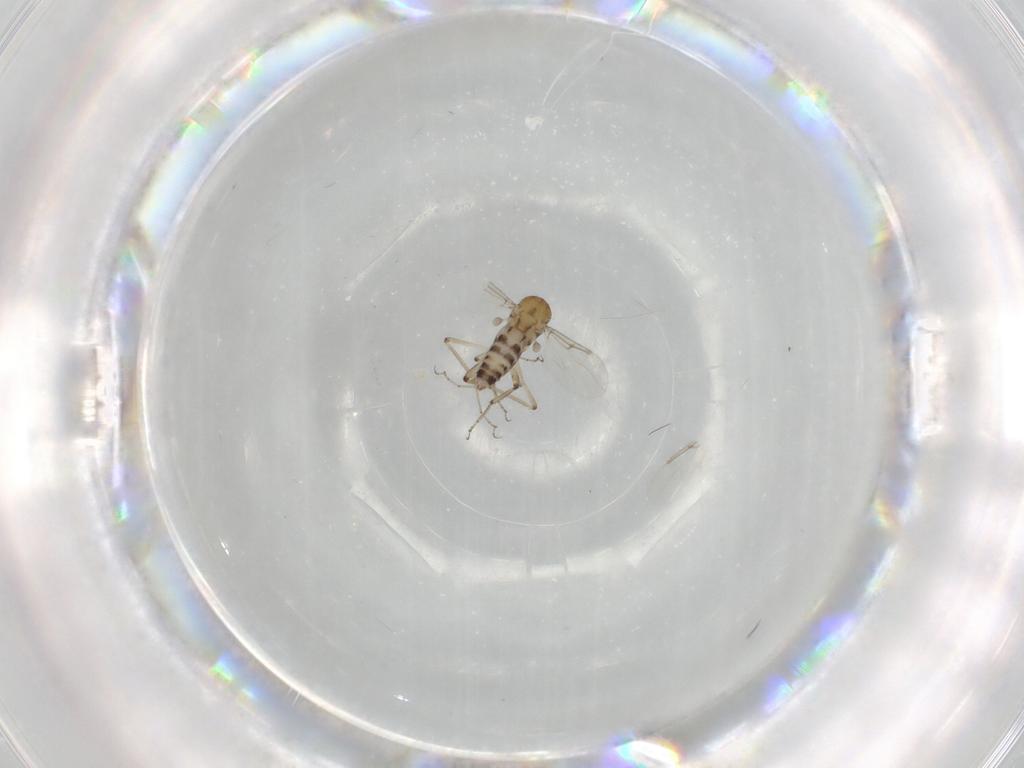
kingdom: Animalia
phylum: Arthropoda
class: Insecta
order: Diptera
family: Ceratopogonidae
